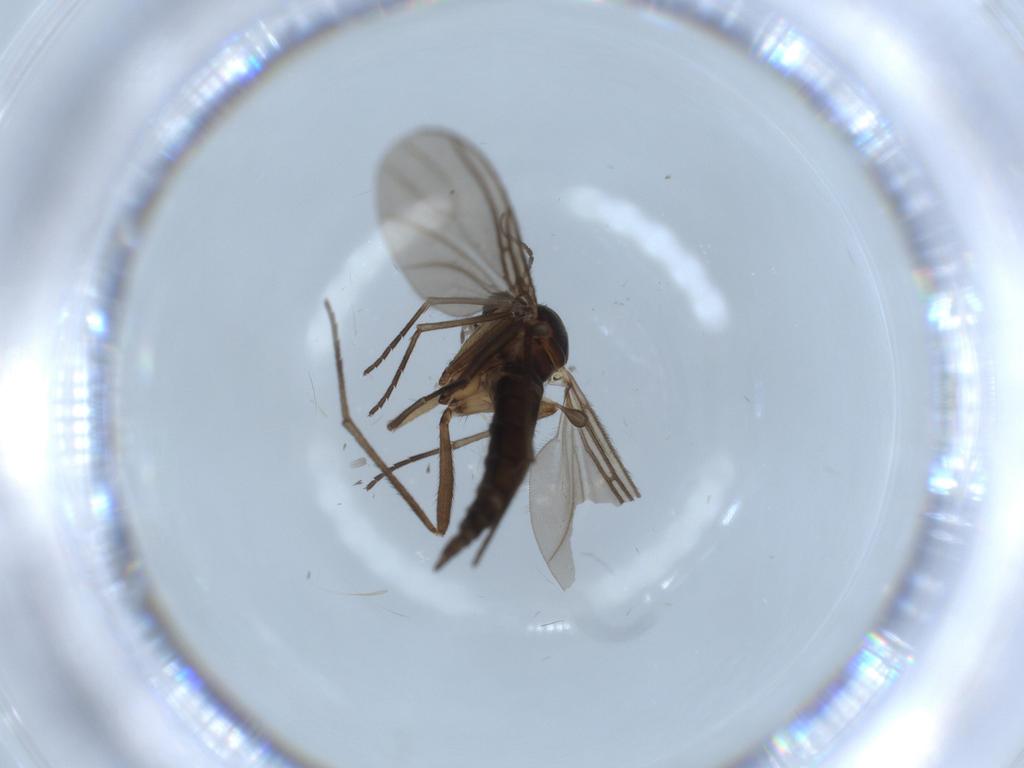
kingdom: Animalia
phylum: Arthropoda
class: Insecta
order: Diptera
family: Sciaridae
